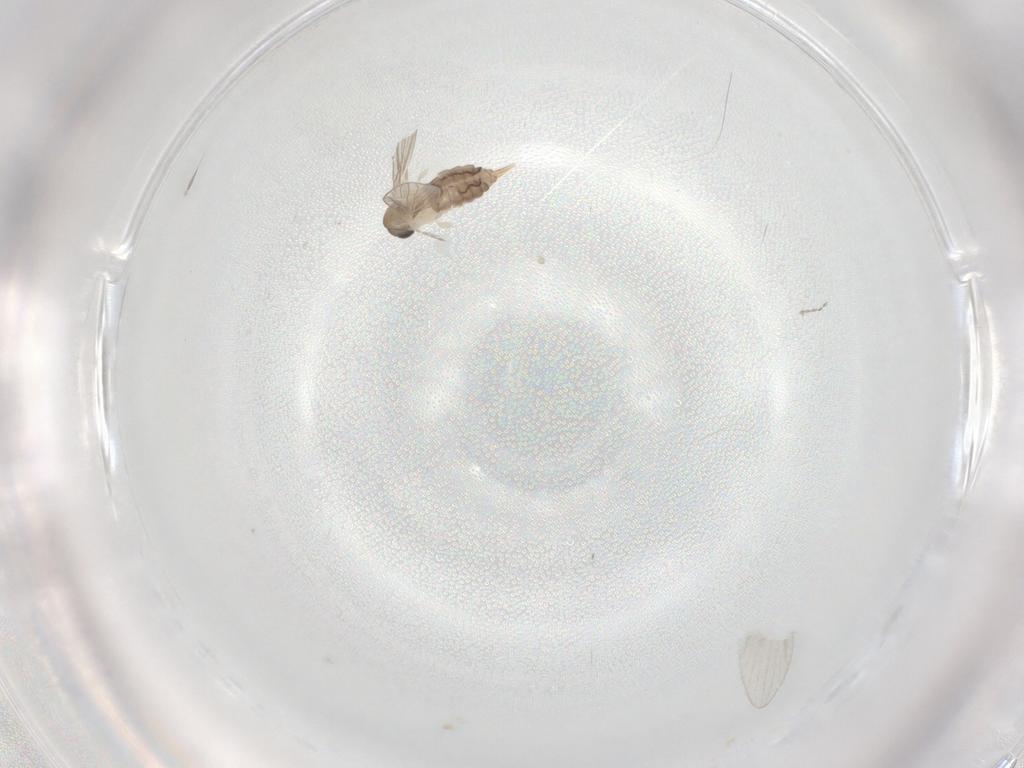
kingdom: Animalia
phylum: Arthropoda
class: Insecta
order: Diptera
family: Psychodidae
